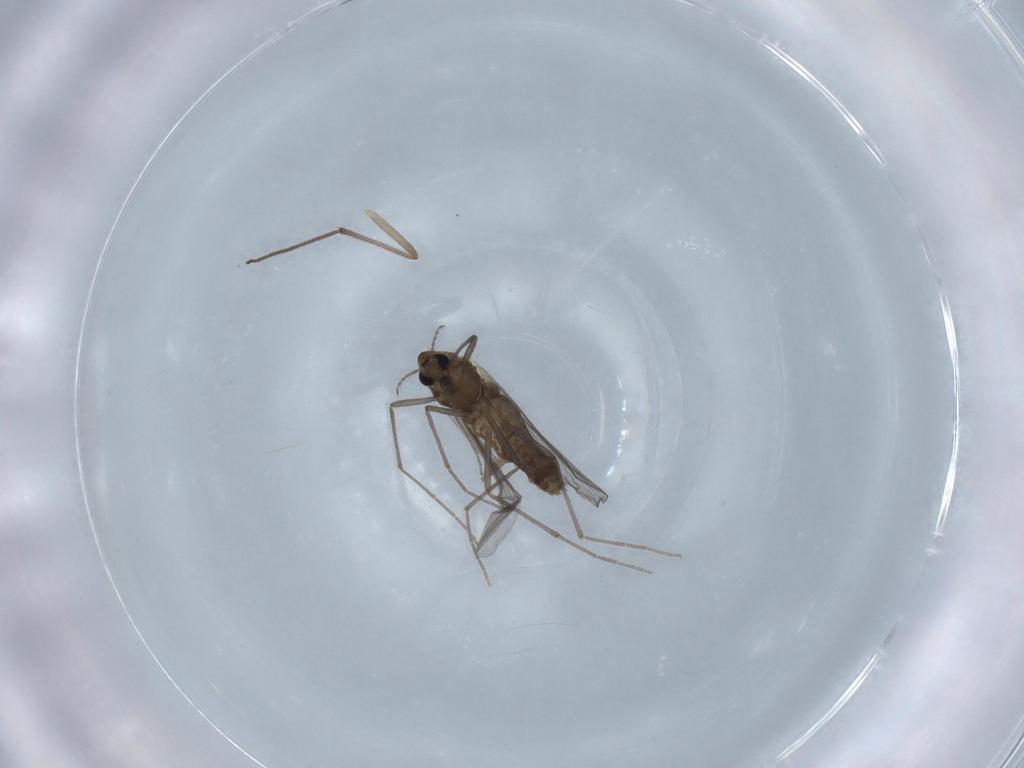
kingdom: Animalia
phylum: Arthropoda
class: Insecta
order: Diptera
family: Chironomidae
